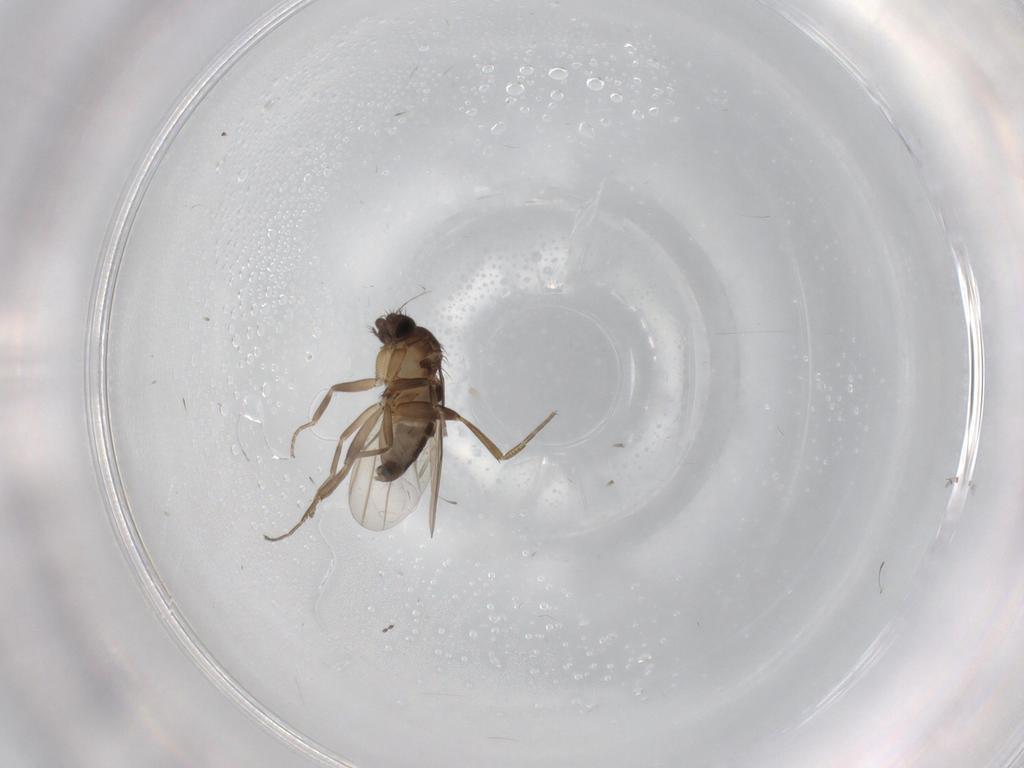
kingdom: Animalia
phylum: Arthropoda
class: Insecta
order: Diptera
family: Phoridae
